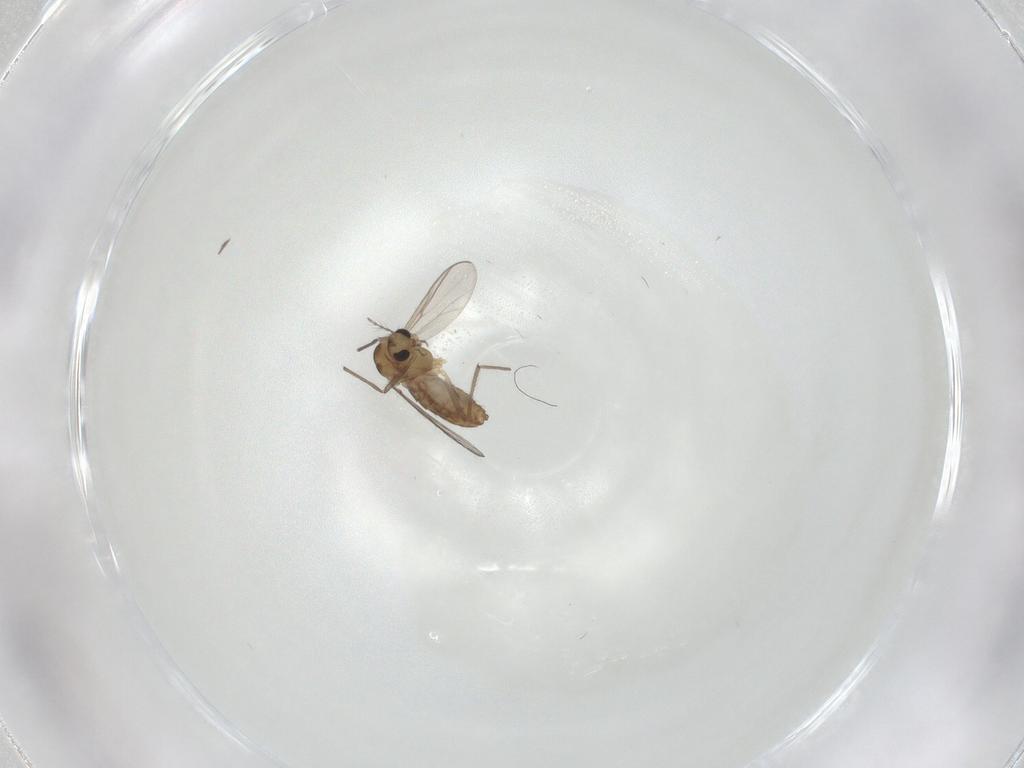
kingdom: Animalia
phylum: Arthropoda
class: Insecta
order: Diptera
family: Chironomidae
